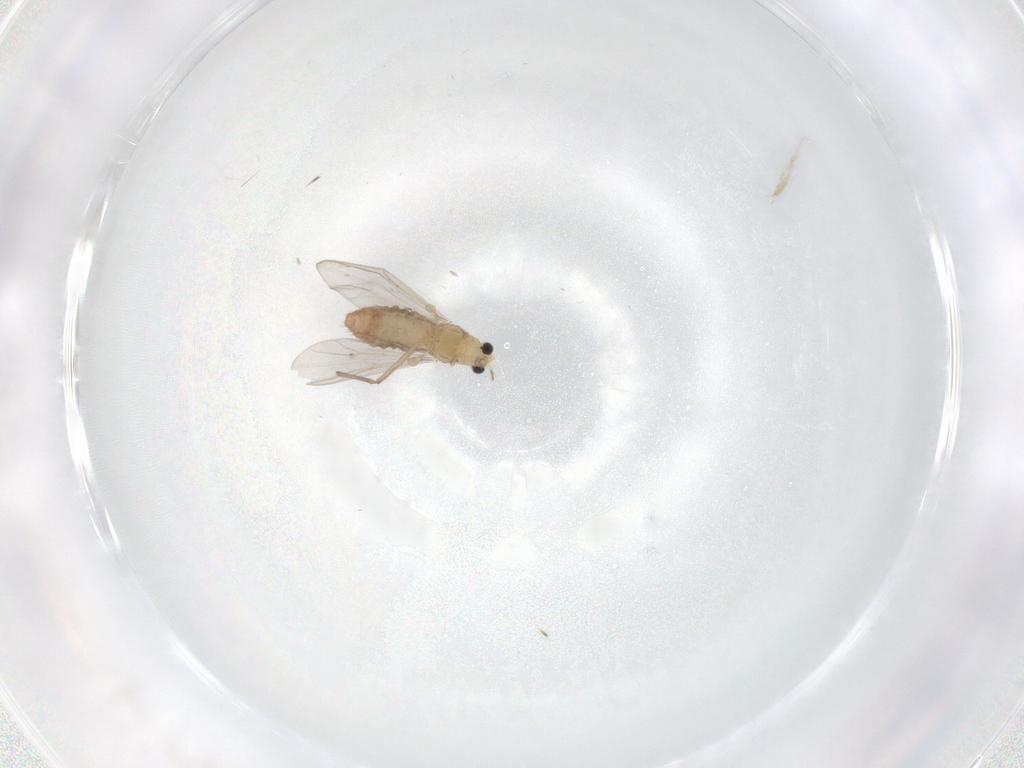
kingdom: Animalia
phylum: Arthropoda
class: Insecta
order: Diptera
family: Chironomidae
